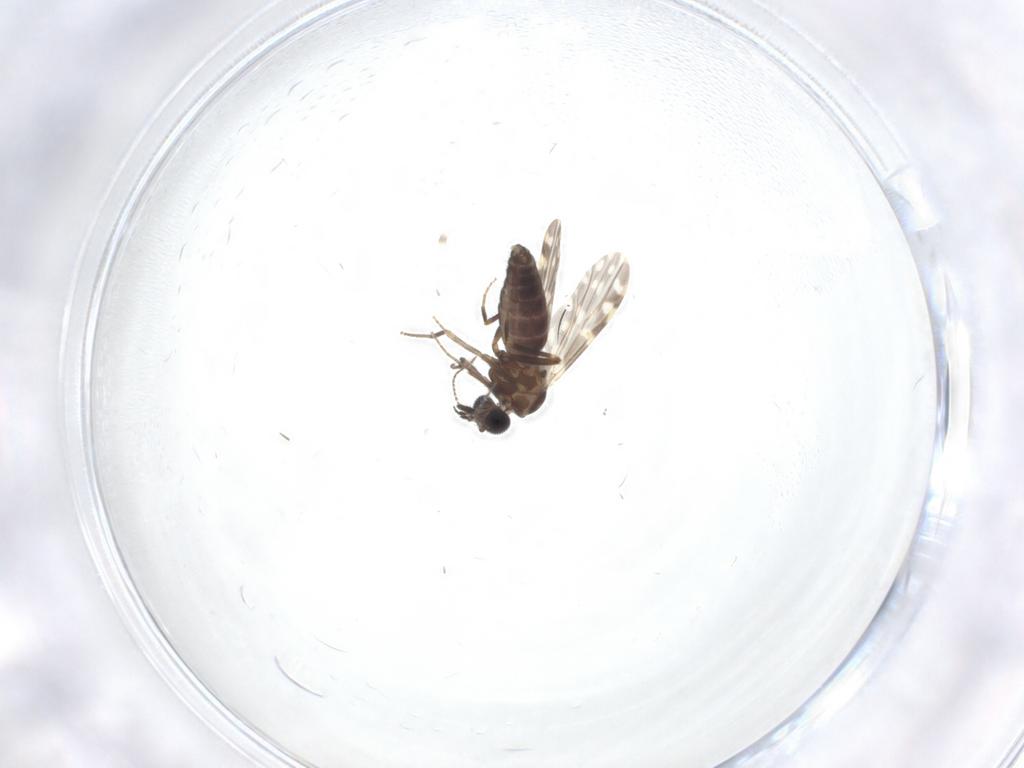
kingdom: Animalia
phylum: Arthropoda
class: Insecta
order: Diptera
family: Ceratopogonidae
